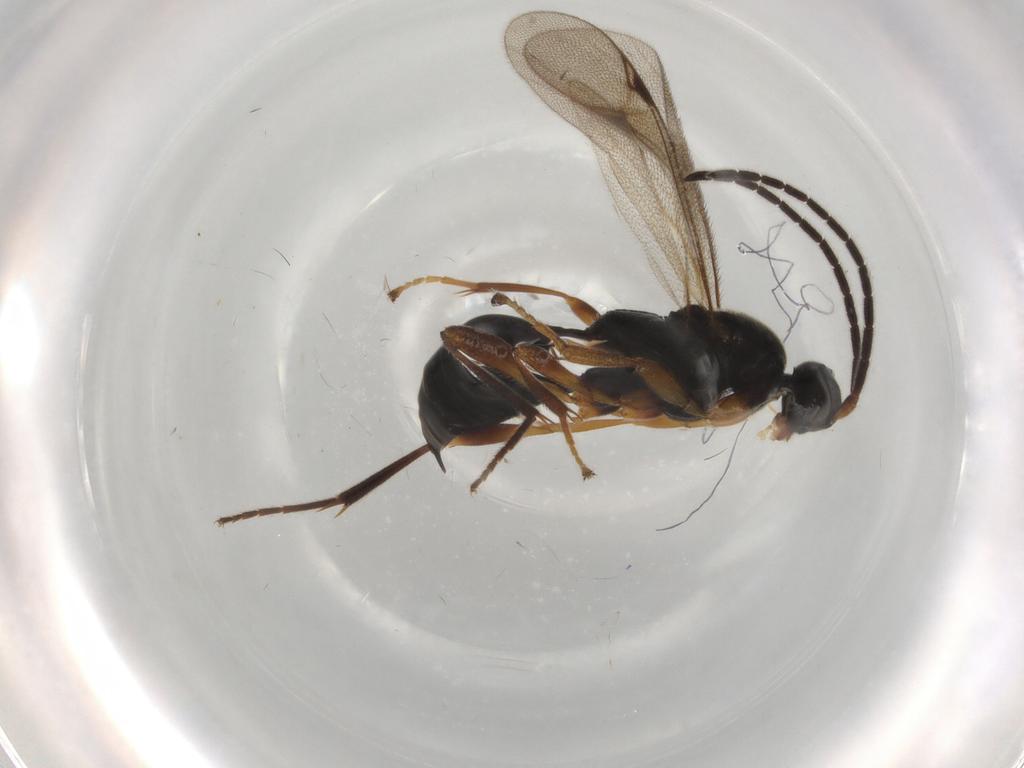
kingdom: Animalia
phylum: Arthropoda
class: Insecta
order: Hymenoptera
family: Proctotrupidae
